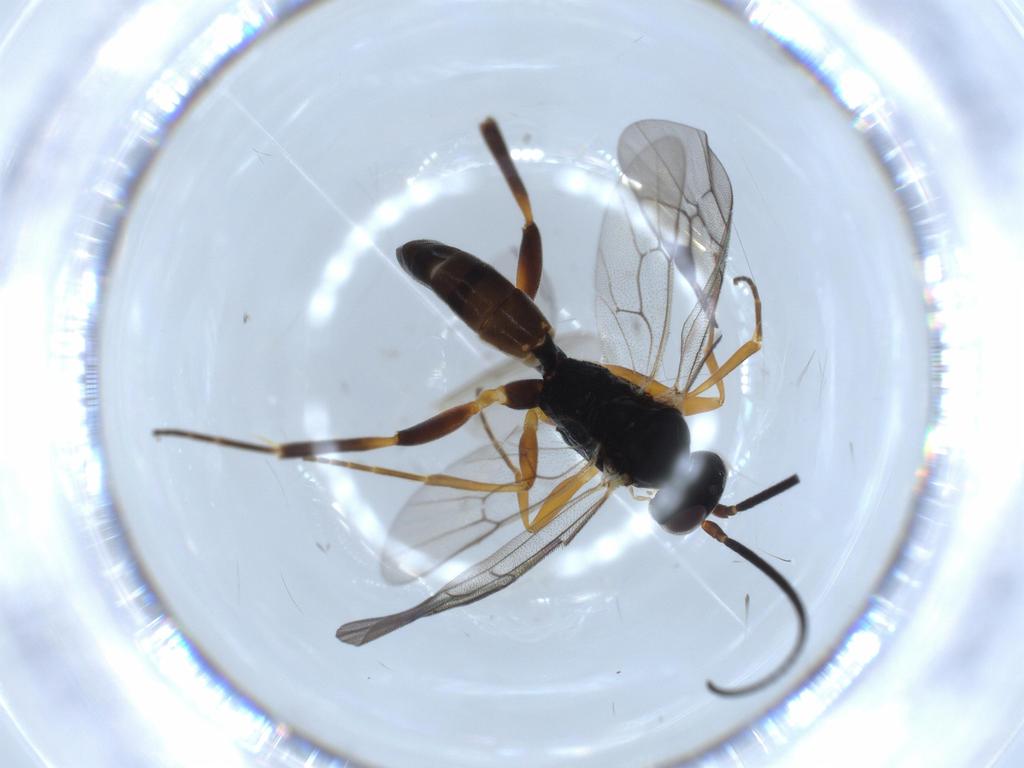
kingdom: Animalia
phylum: Arthropoda
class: Insecta
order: Hymenoptera
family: Ichneumonidae
